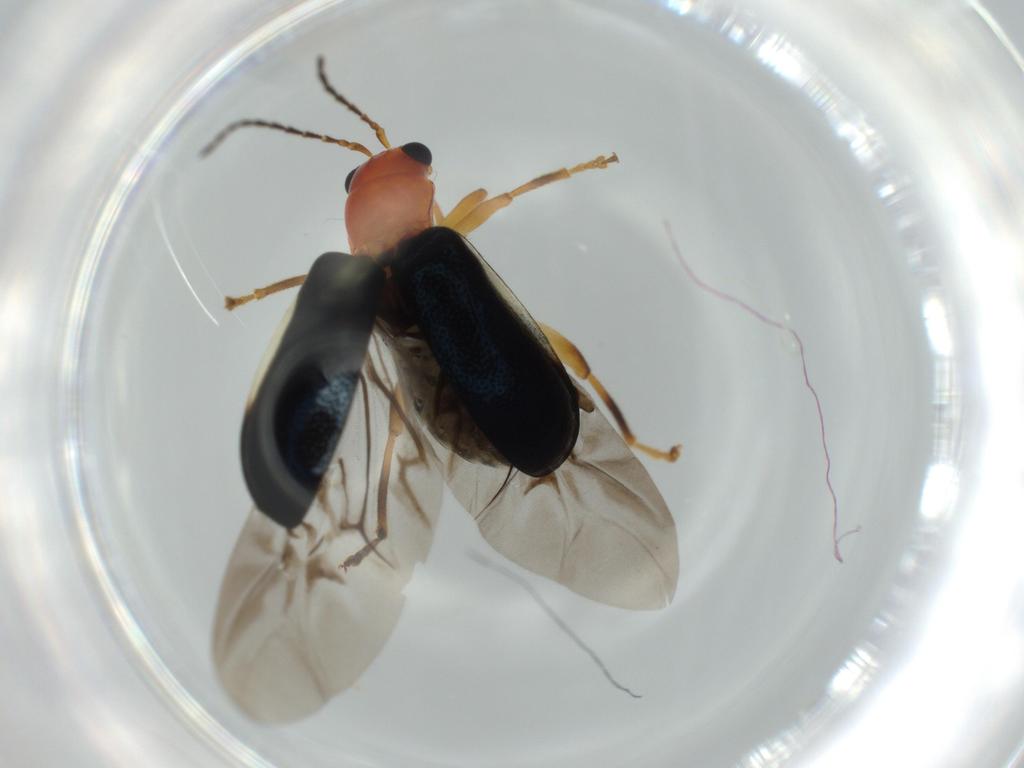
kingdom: Animalia
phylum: Arthropoda
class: Insecta
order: Coleoptera
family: Chrysomelidae
